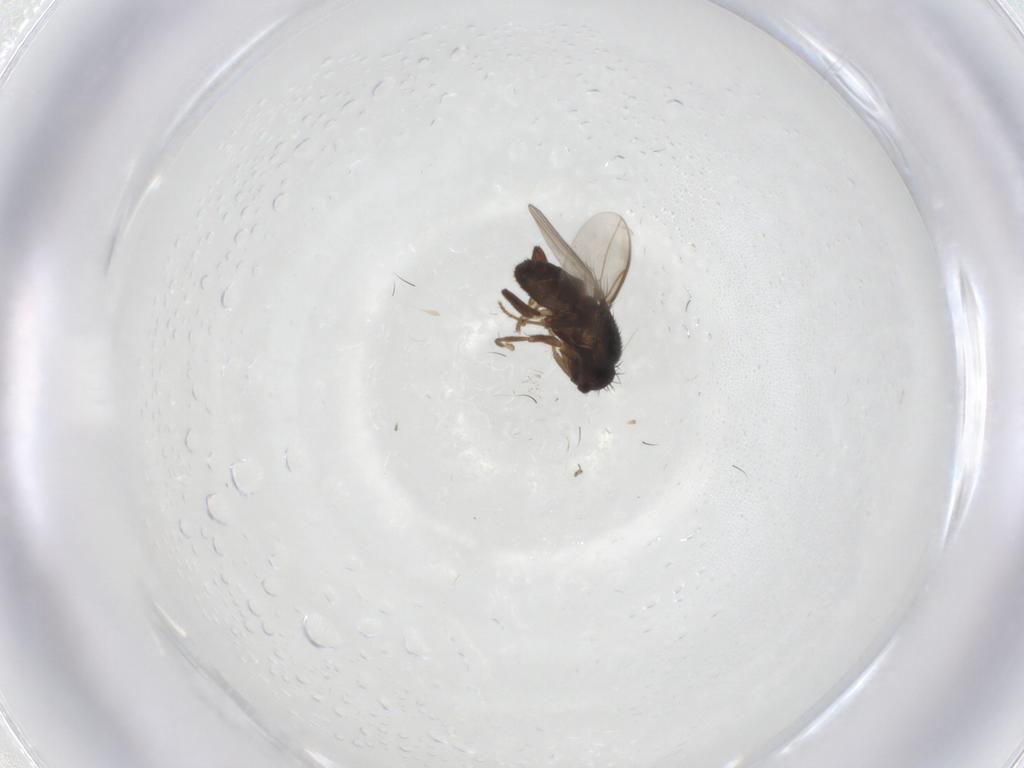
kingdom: Animalia
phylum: Arthropoda
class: Insecta
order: Diptera
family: Sphaeroceridae
